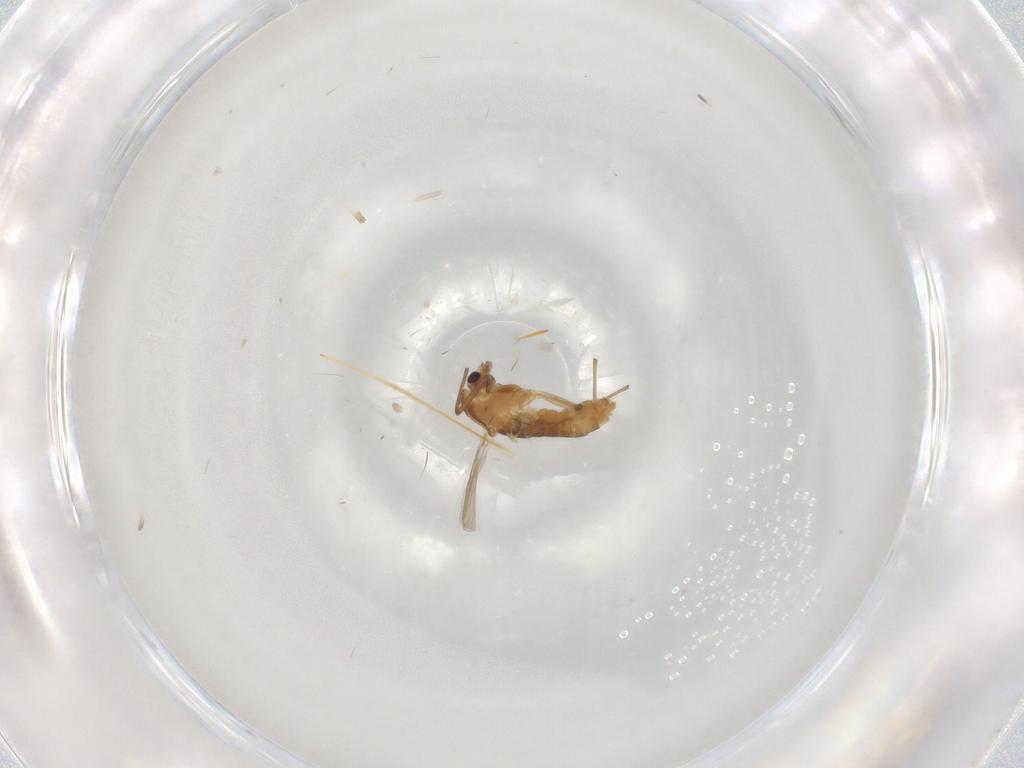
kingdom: Animalia
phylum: Arthropoda
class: Insecta
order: Diptera
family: Chironomidae
